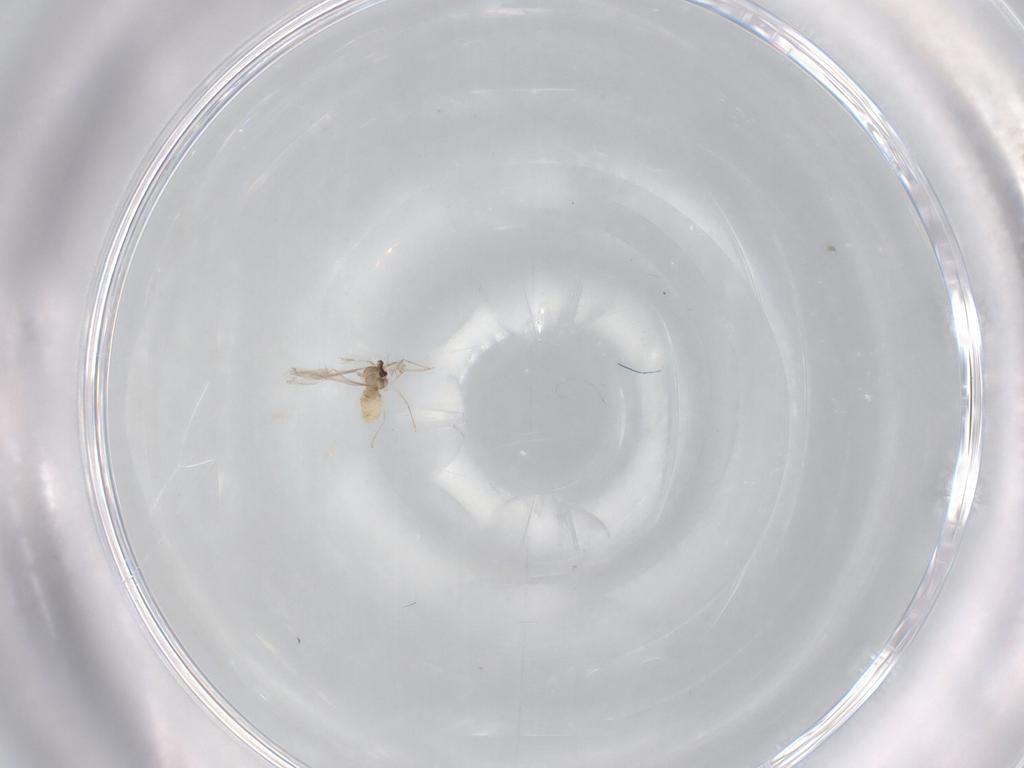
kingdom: Animalia
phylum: Arthropoda
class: Insecta
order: Diptera
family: Cecidomyiidae
